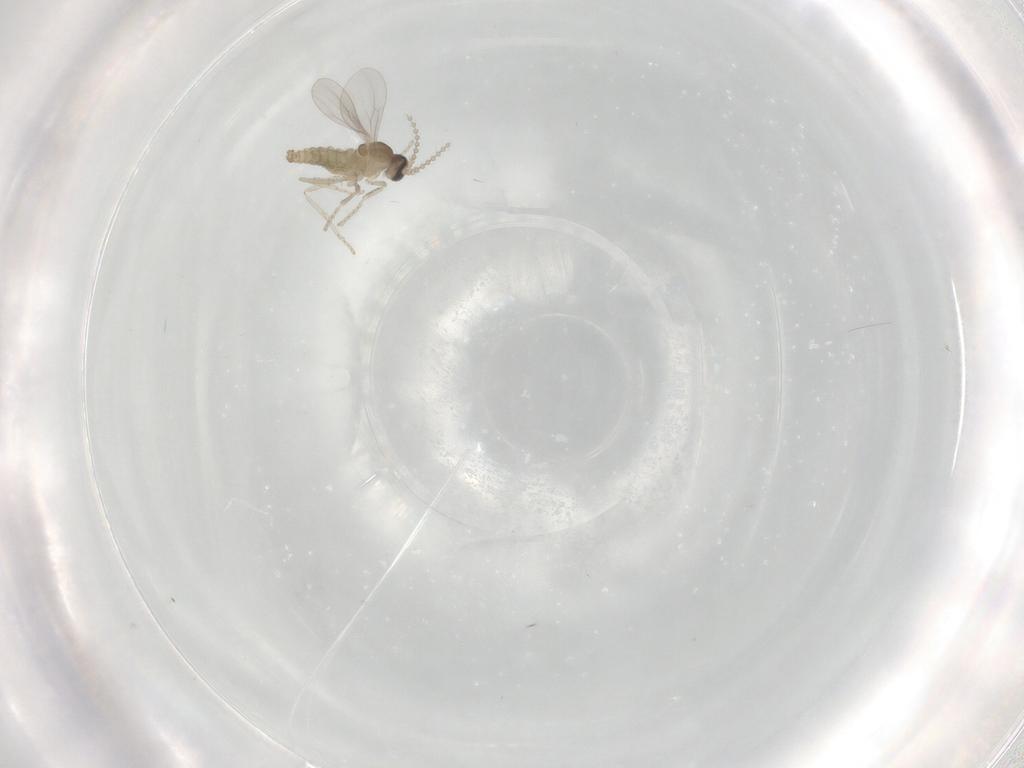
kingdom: Animalia
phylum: Arthropoda
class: Insecta
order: Diptera
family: Cecidomyiidae
